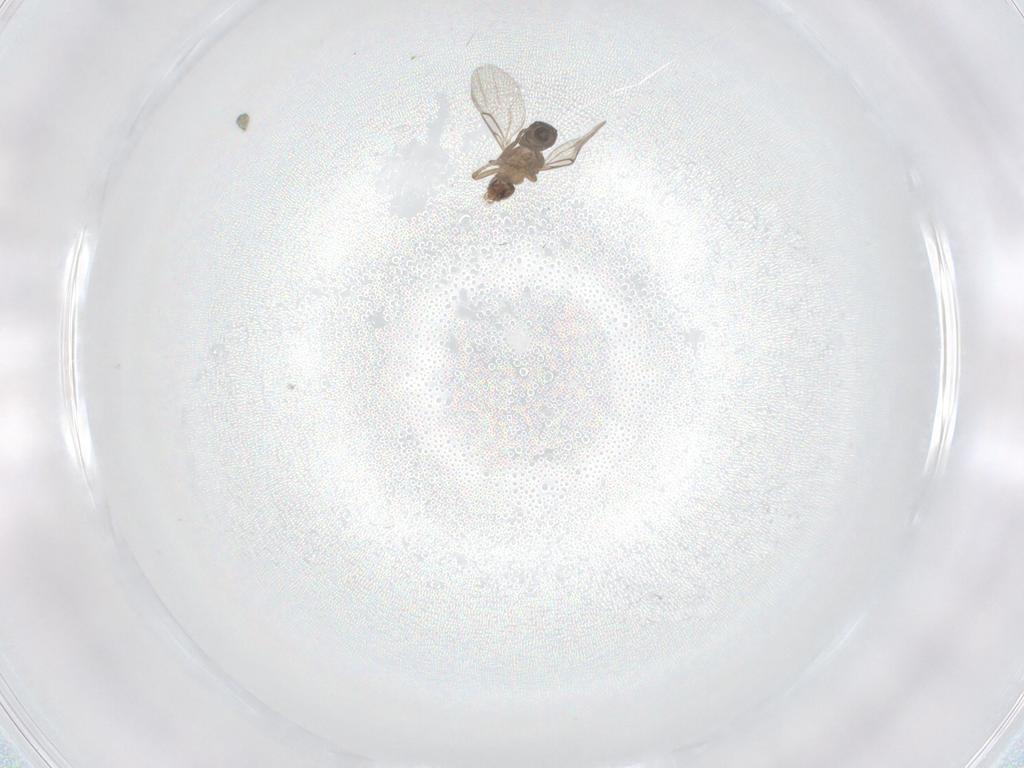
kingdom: Animalia
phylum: Arthropoda
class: Insecta
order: Diptera
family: Phoridae
